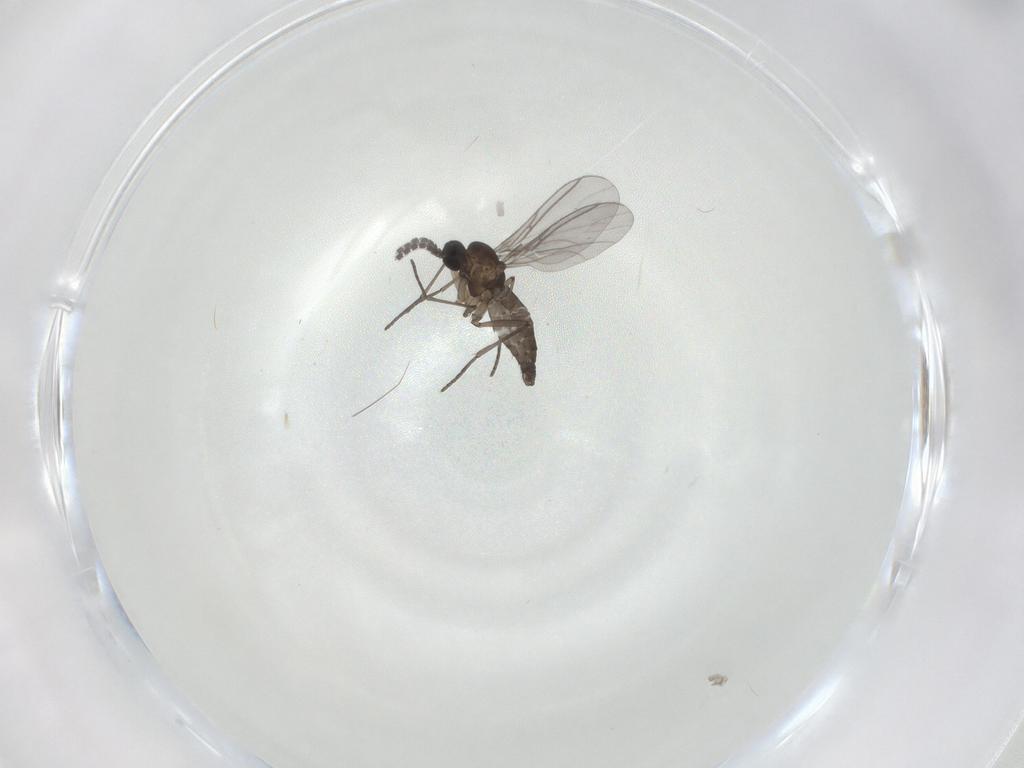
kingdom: Animalia
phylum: Arthropoda
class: Insecta
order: Diptera
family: Sciaridae
